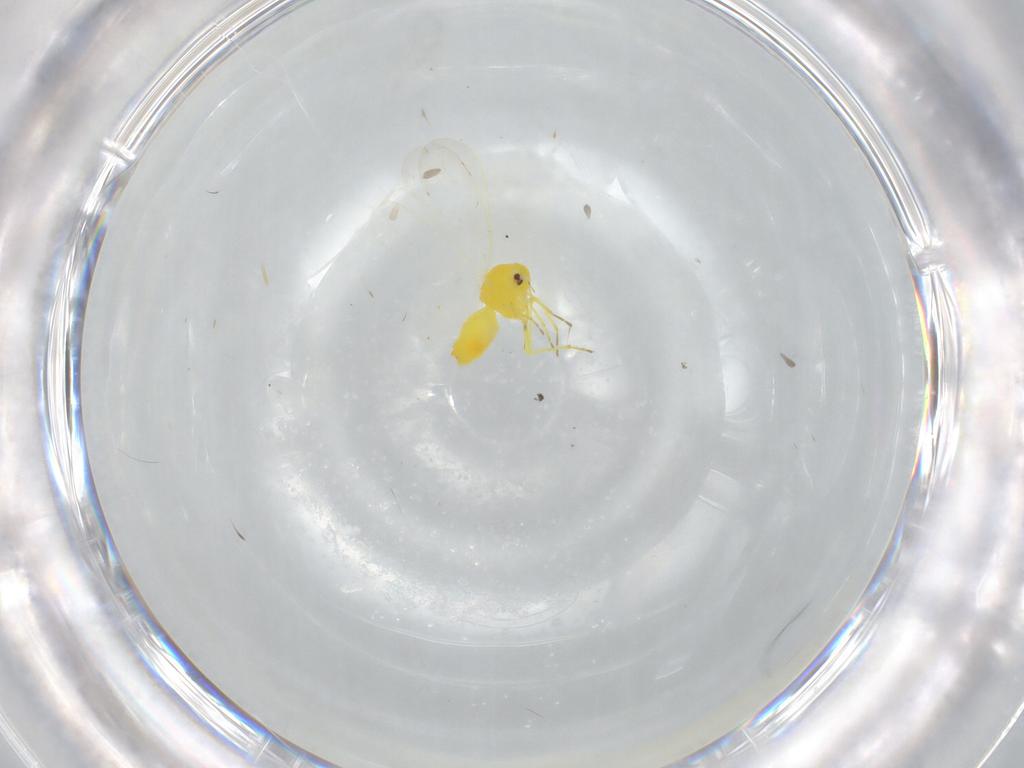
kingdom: Animalia
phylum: Arthropoda
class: Insecta
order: Hemiptera
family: Aleyrodidae
